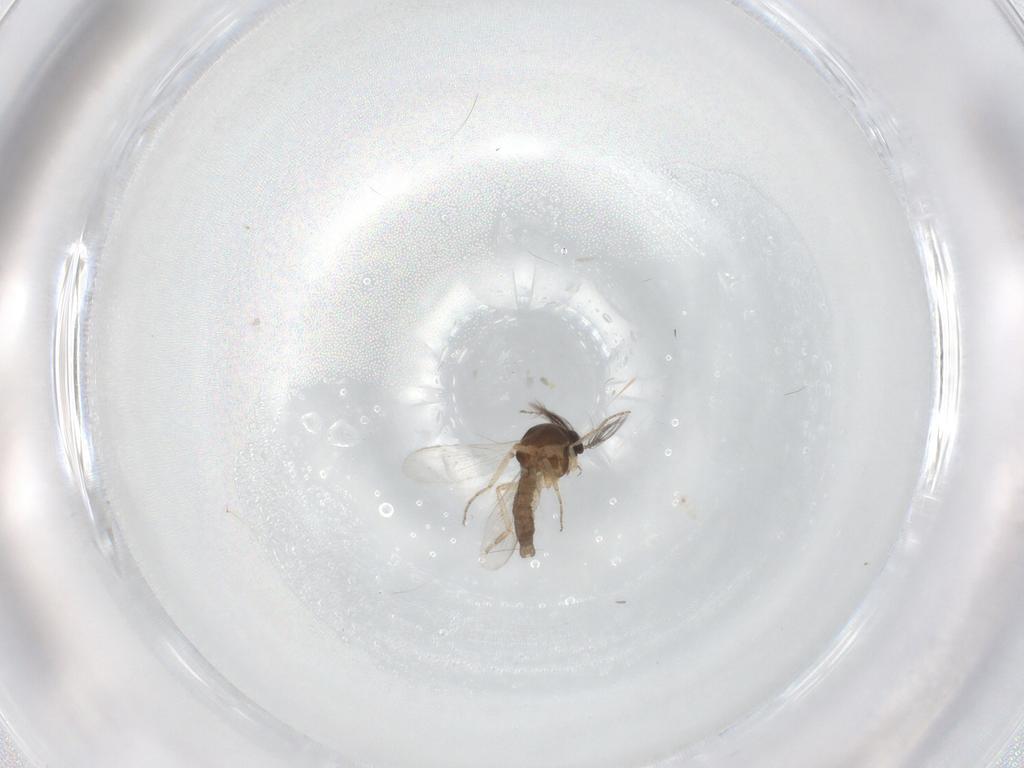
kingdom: Animalia
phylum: Arthropoda
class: Insecta
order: Diptera
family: Ceratopogonidae
